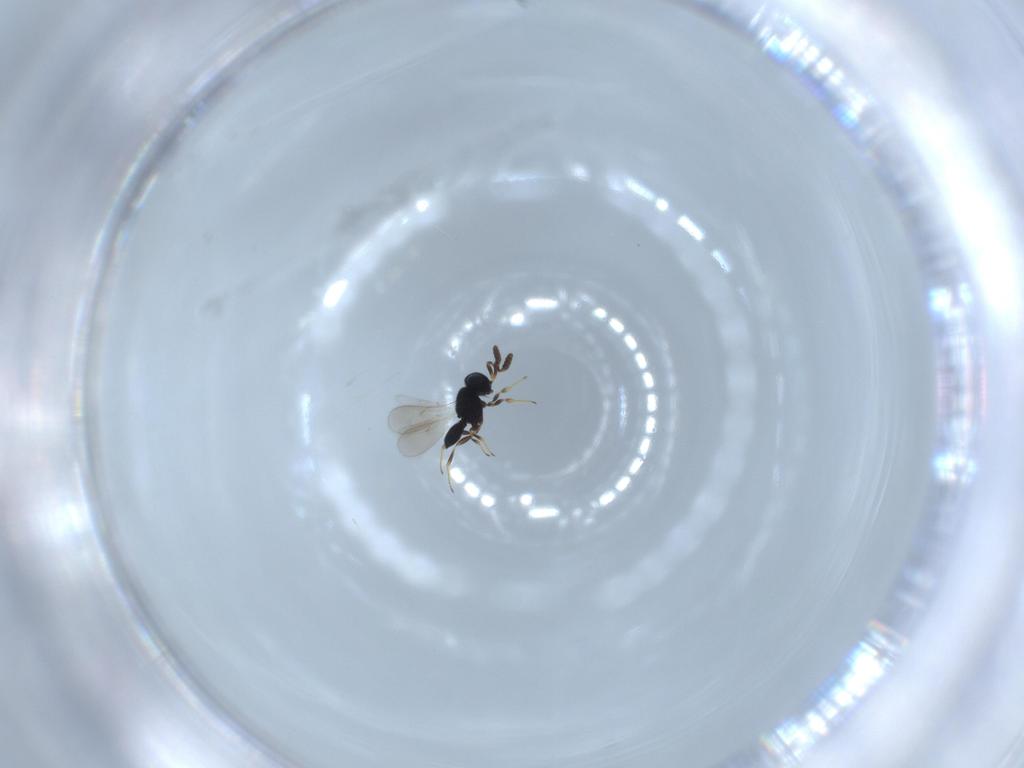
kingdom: Animalia
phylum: Arthropoda
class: Insecta
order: Hymenoptera
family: Scelionidae
